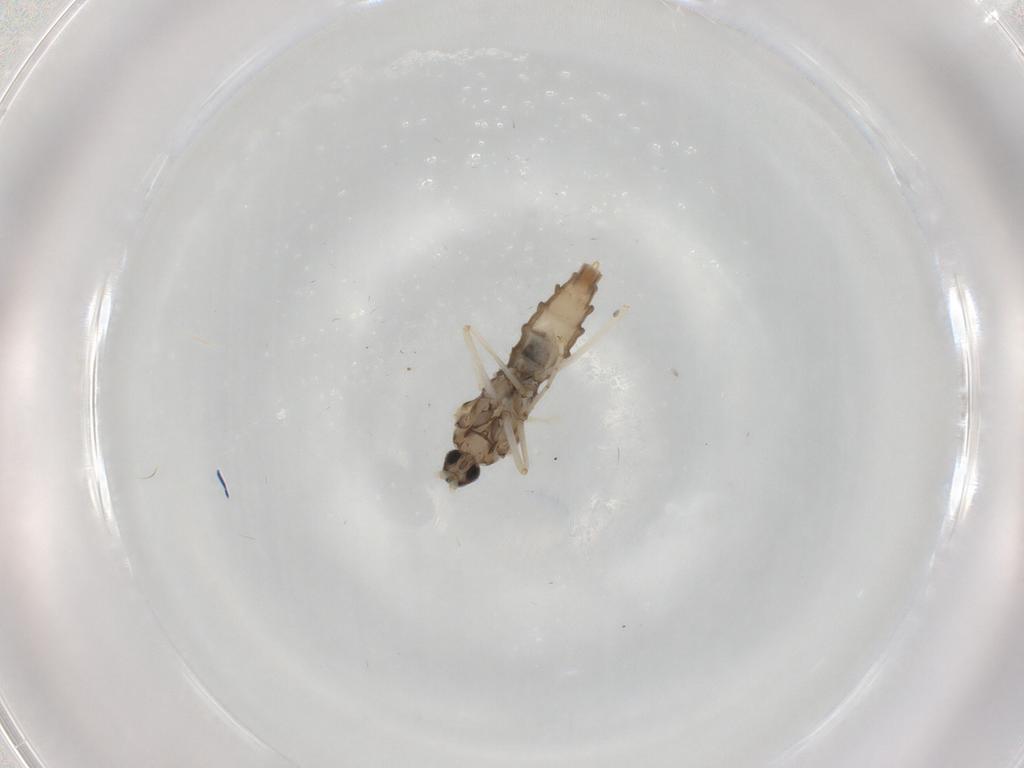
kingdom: Animalia
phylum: Arthropoda
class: Insecta
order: Diptera
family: Cecidomyiidae
